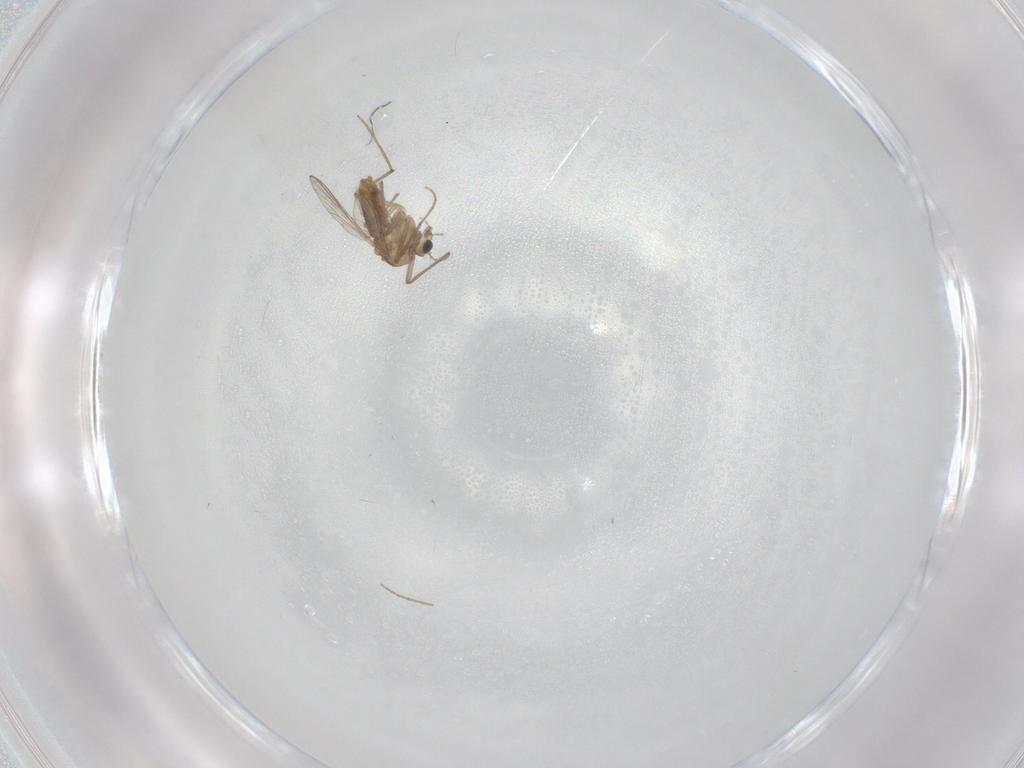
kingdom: Animalia
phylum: Arthropoda
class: Insecta
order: Diptera
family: Chironomidae
